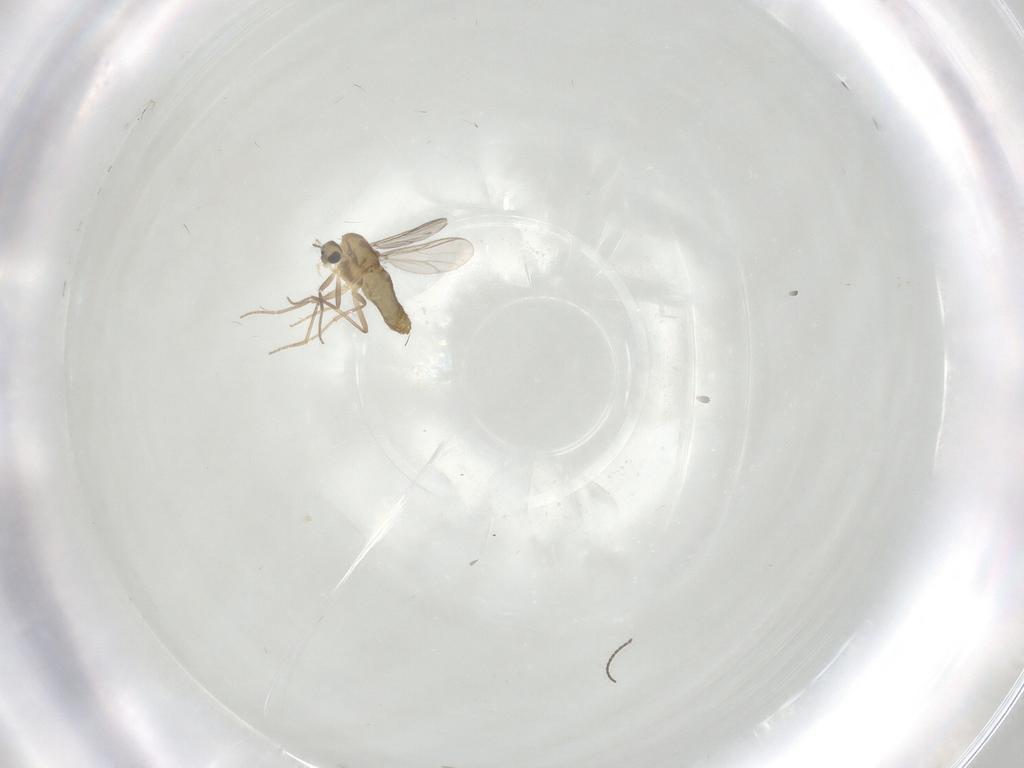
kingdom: Animalia
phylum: Arthropoda
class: Insecta
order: Diptera
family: Chironomidae
